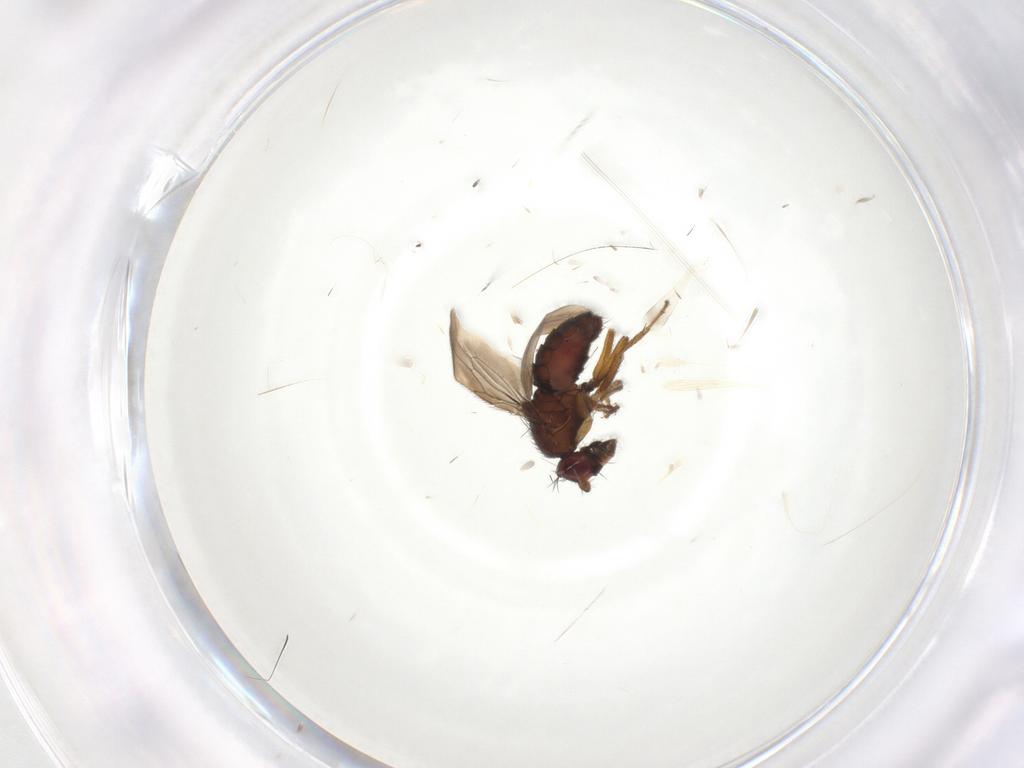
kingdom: Animalia
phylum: Arthropoda
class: Insecta
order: Diptera
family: Sphaeroceridae
